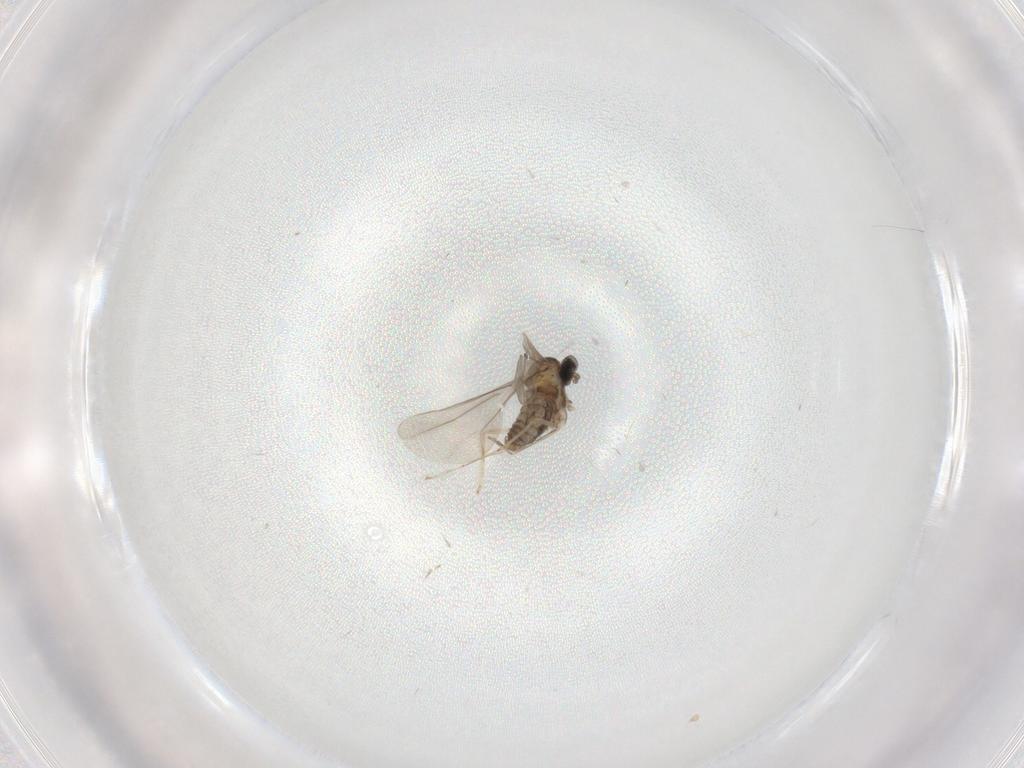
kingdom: Animalia
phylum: Arthropoda
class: Insecta
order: Diptera
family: Cecidomyiidae
